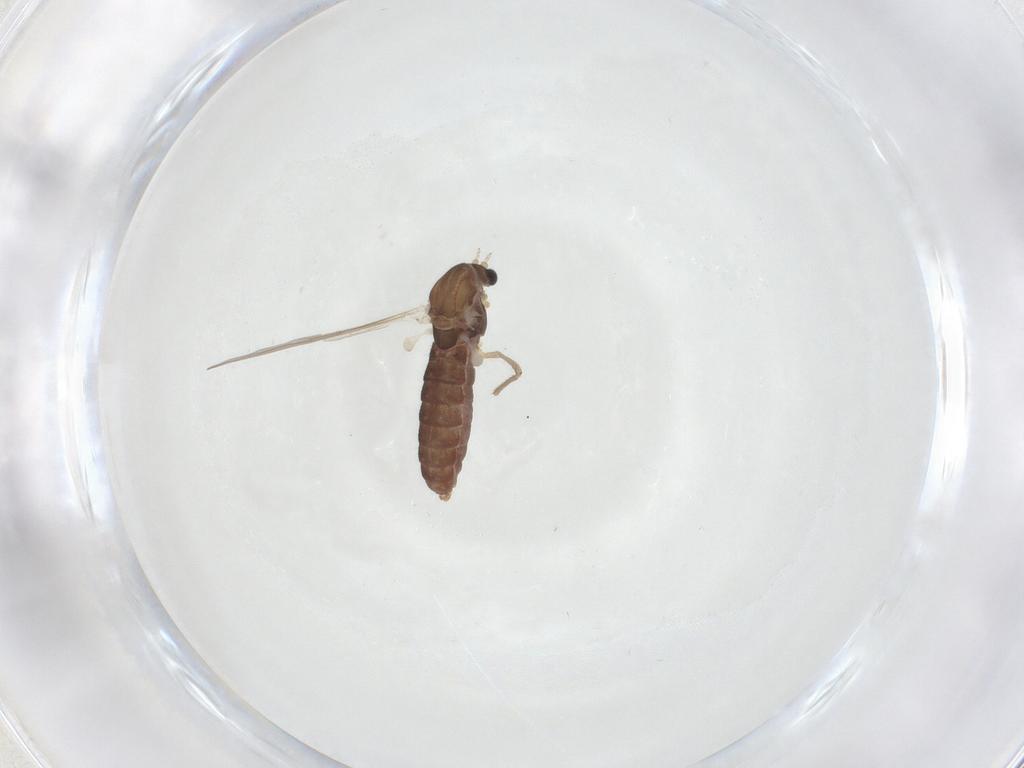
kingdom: Animalia
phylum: Arthropoda
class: Insecta
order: Diptera
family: Chironomidae
